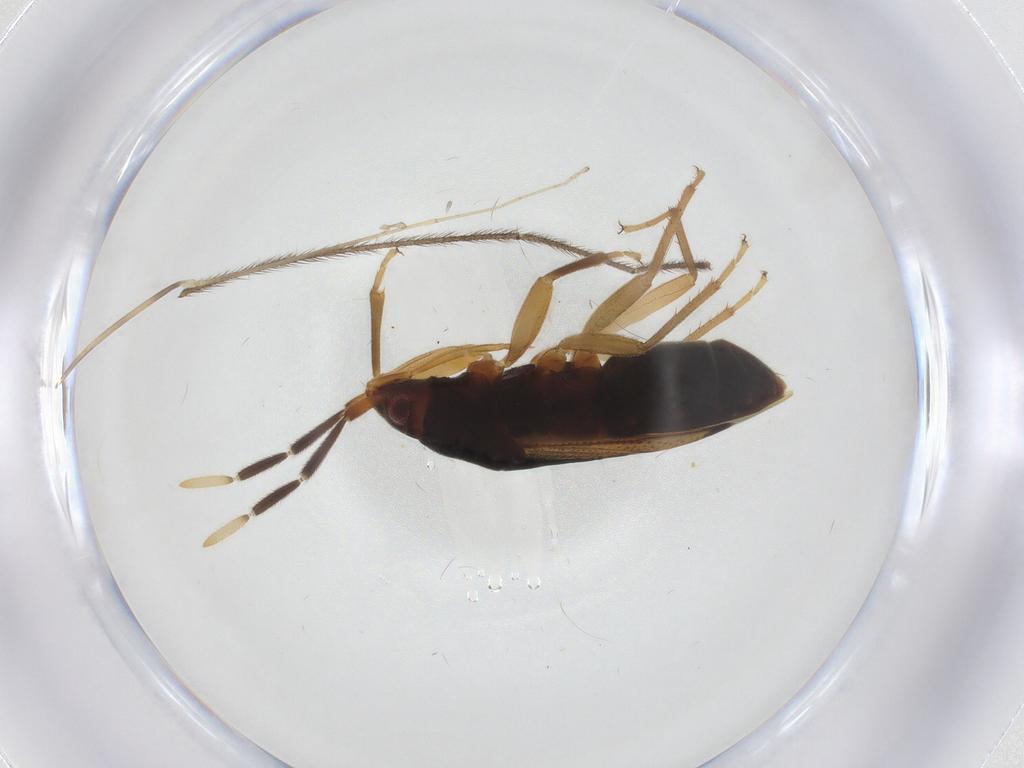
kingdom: Animalia
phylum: Arthropoda
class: Insecta
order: Hemiptera
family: Rhyparochromidae
